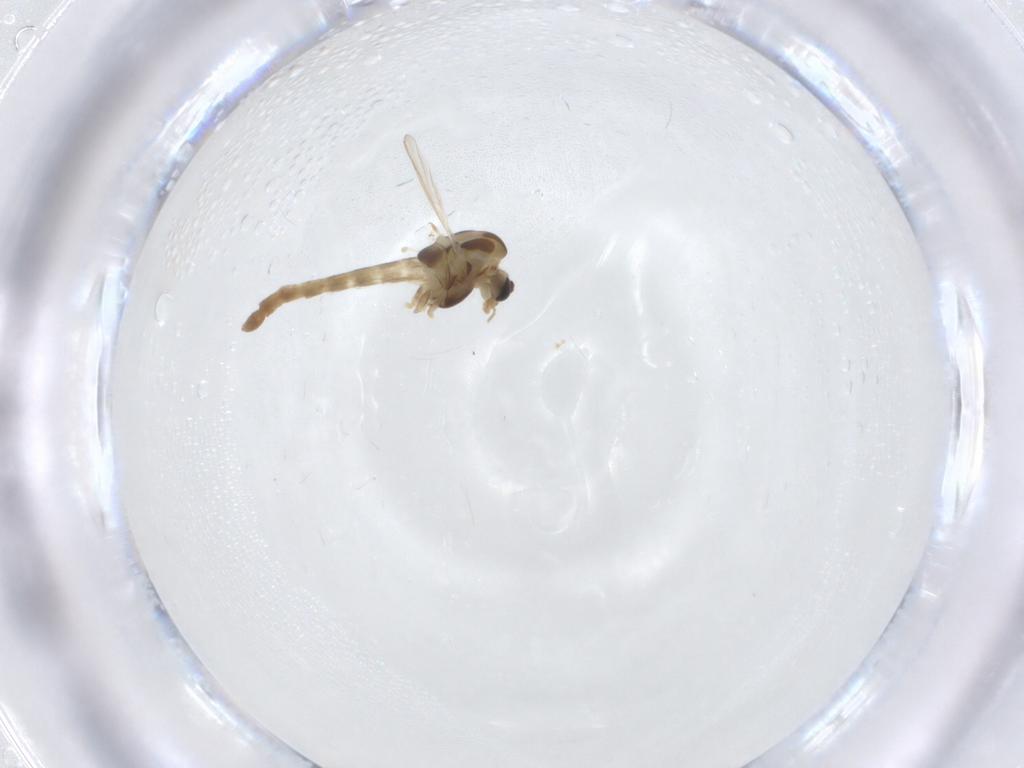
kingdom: Animalia
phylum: Arthropoda
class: Insecta
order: Diptera
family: Chironomidae
